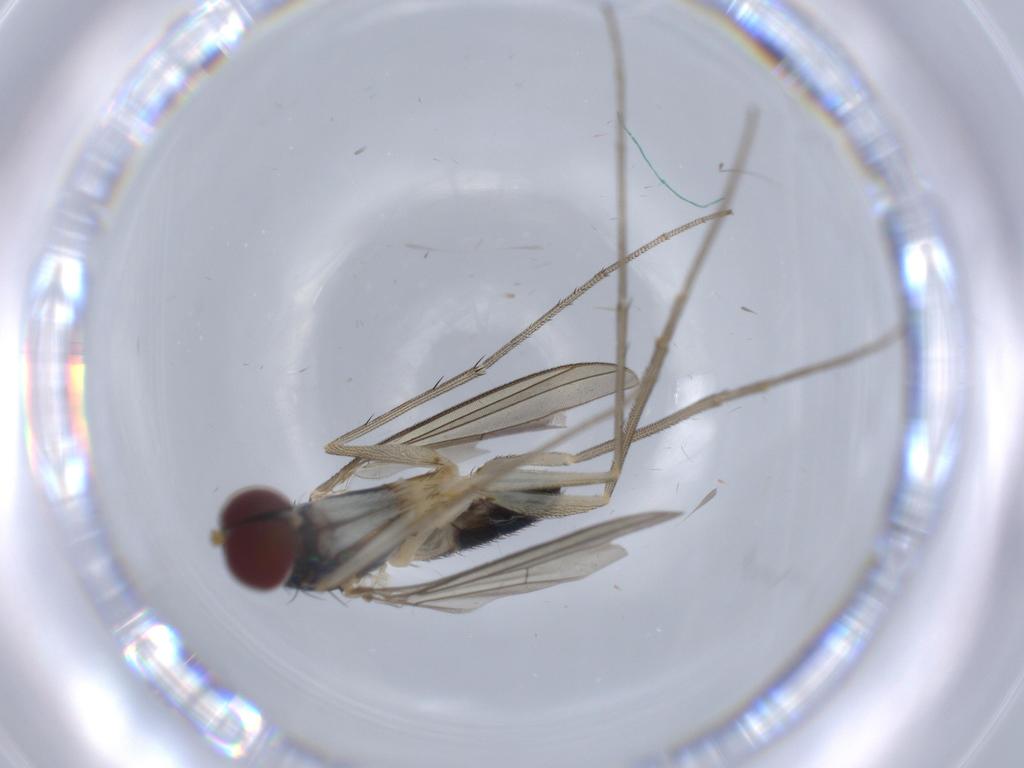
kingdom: Animalia
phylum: Arthropoda
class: Insecta
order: Diptera
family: Dolichopodidae
